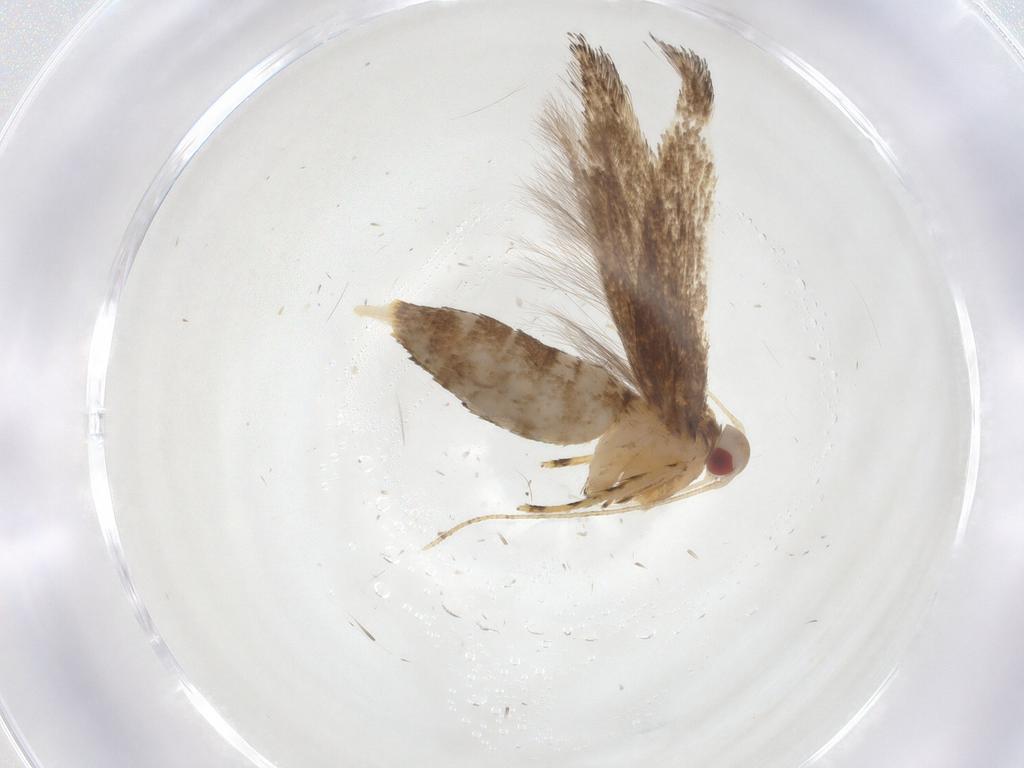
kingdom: Animalia
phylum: Arthropoda
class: Insecta
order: Lepidoptera
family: Cosmopterigidae
